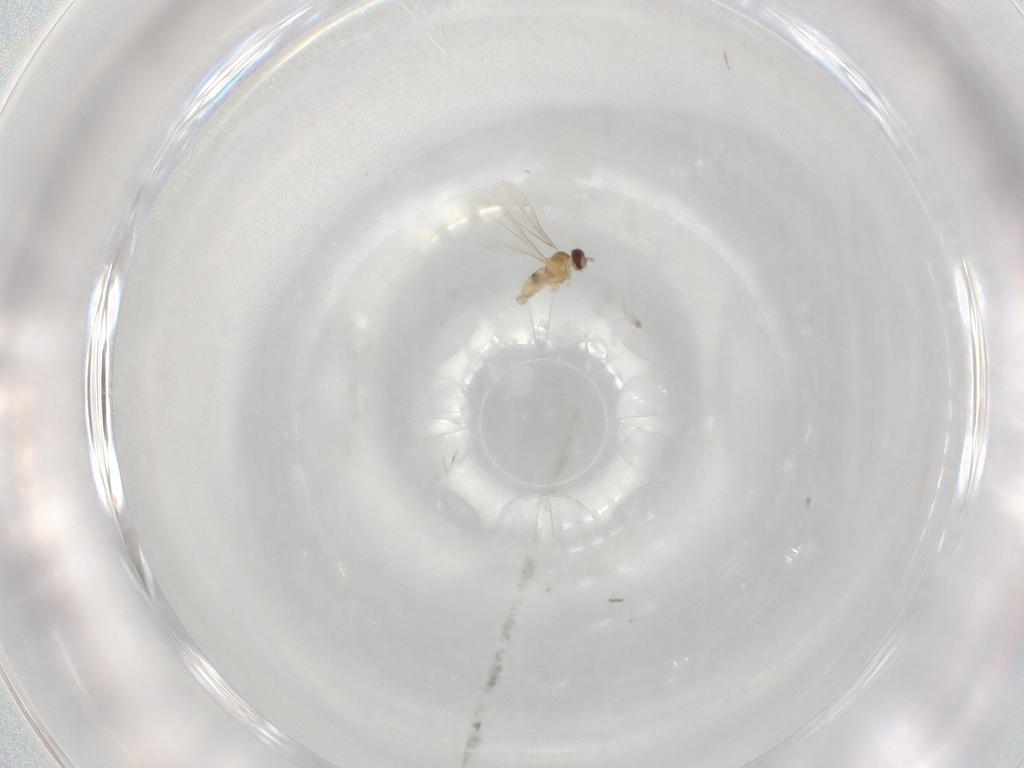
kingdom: Animalia
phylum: Arthropoda
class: Insecta
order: Diptera
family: Cecidomyiidae
